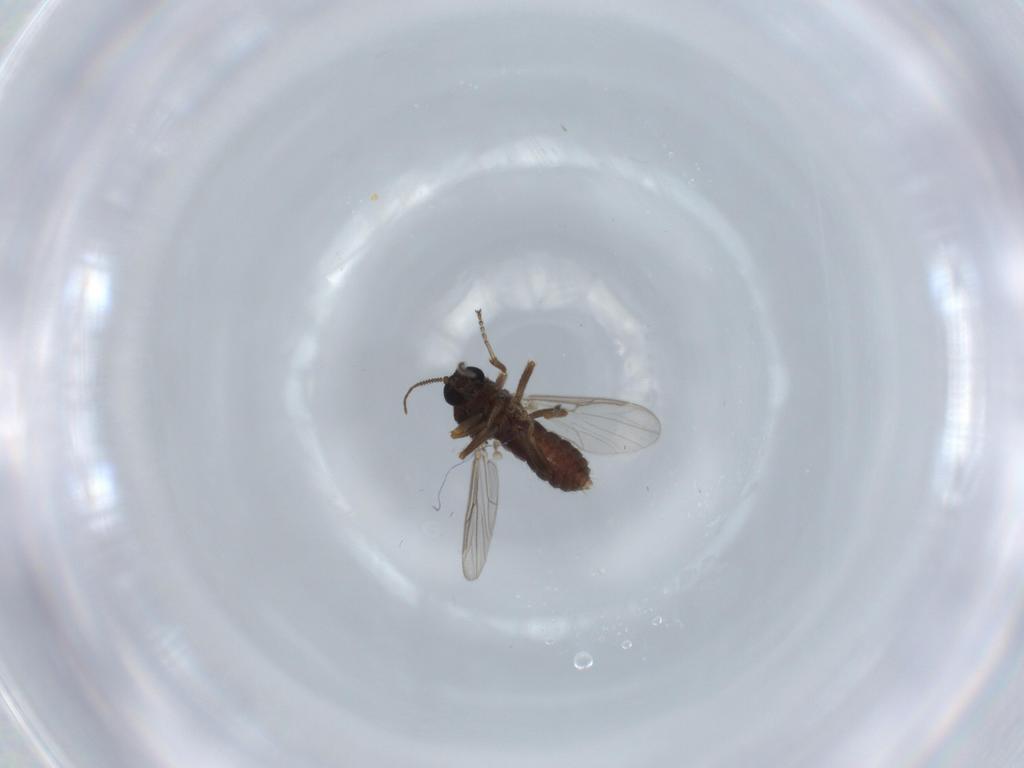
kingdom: Animalia
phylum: Arthropoda
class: Insecta
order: Diptera
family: Ceratopogonidae
